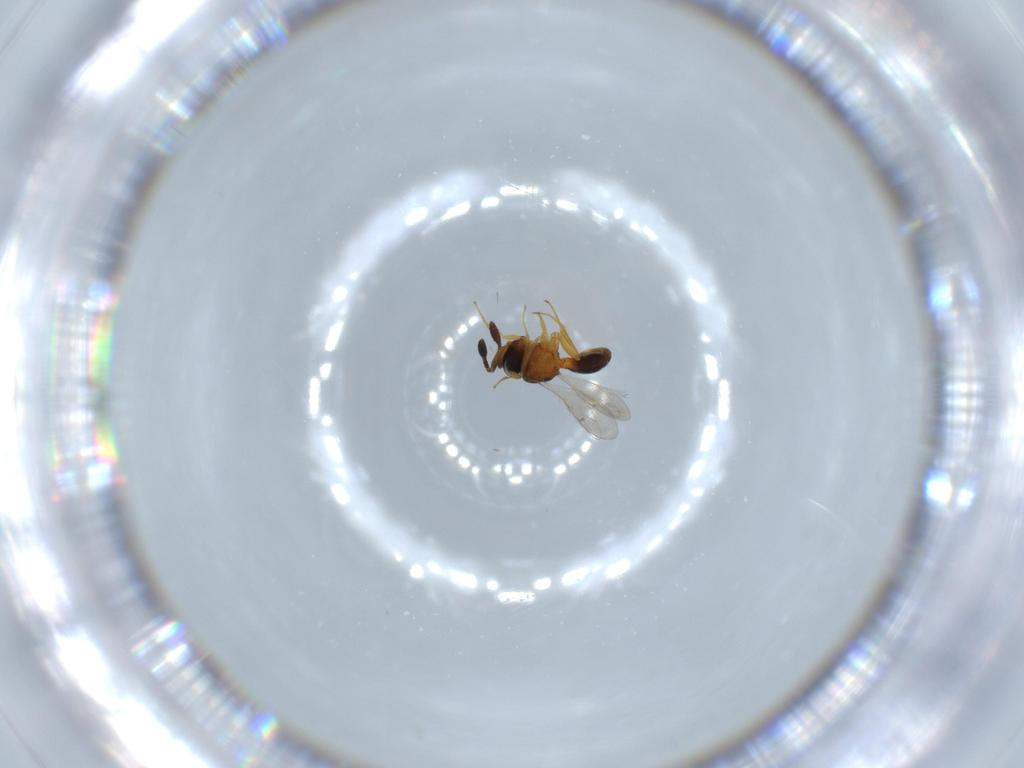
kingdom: Animalia
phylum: Arthropoda
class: Insecta
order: Hymenoptera
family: Scelionidae
